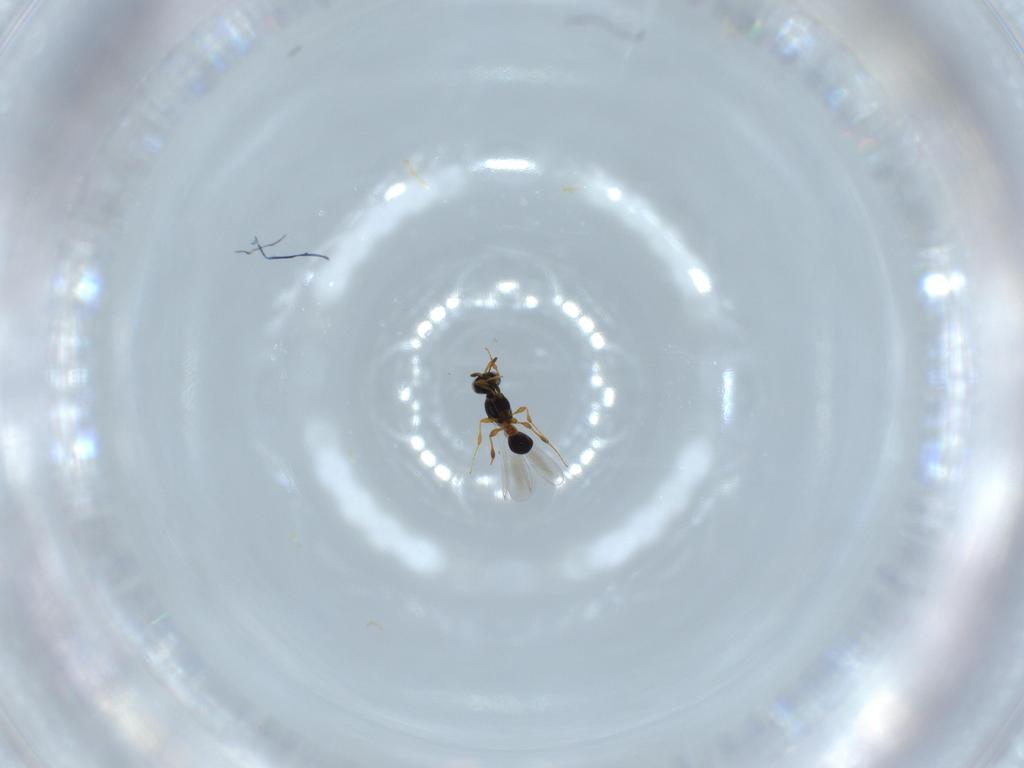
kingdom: Animalia
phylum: Arthropoda
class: Insecta
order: Hymenoptera
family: Platygastridae
